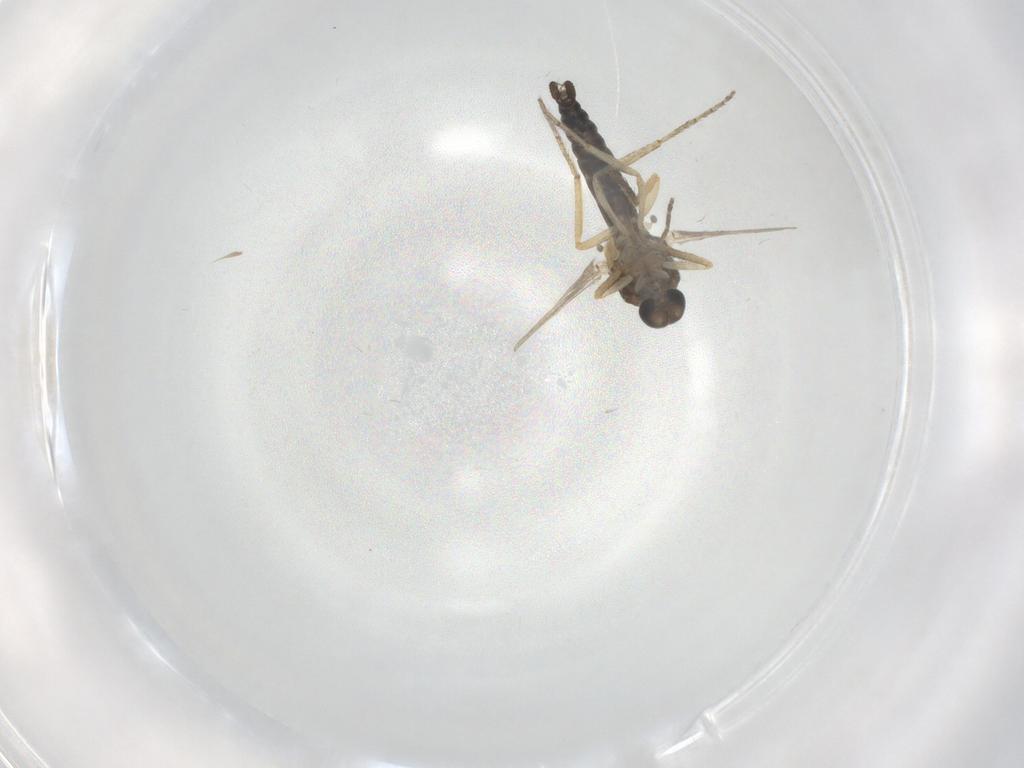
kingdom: Animalia
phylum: Arthropoda
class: Insecta
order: Diptera
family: Ceratopogonidae
